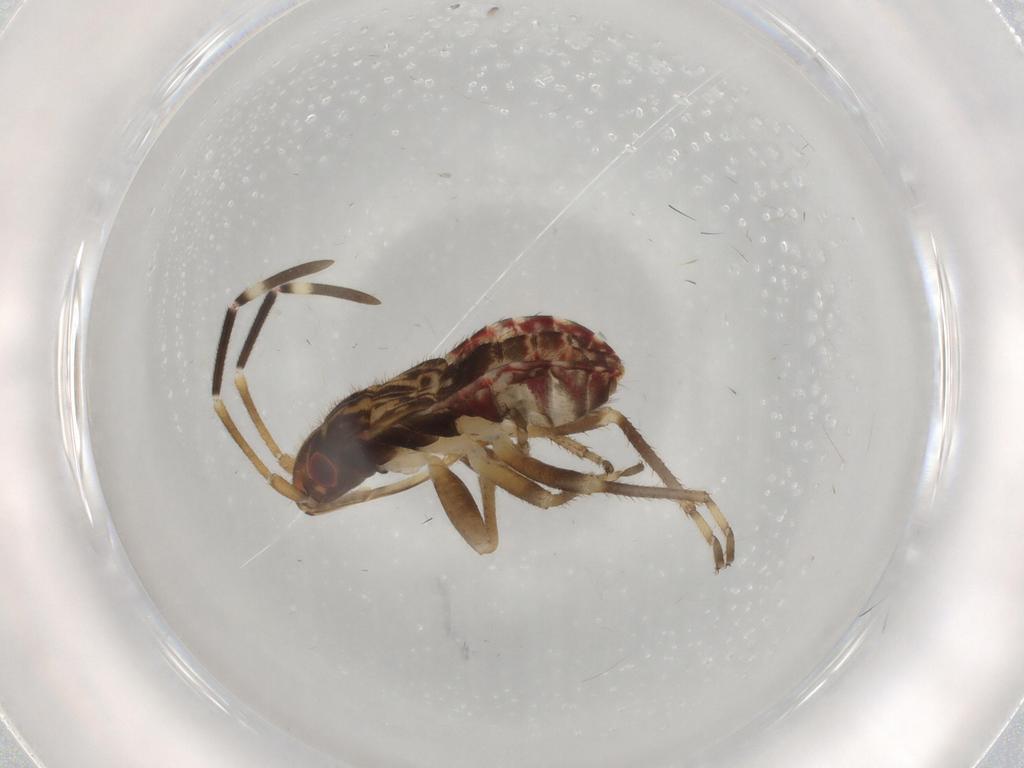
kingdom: Animalia
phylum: Arthropoda
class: Insecta
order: Hemiptera
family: Rhyparochromidae
